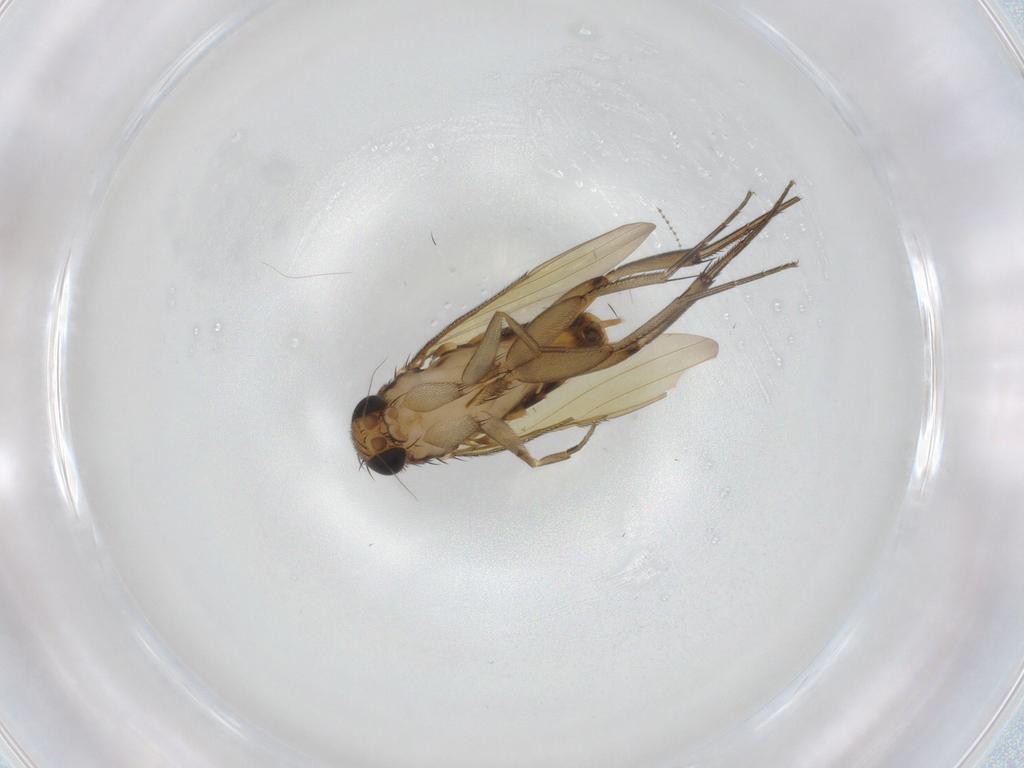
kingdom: Animalia
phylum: Arthropoda
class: Insecta
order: Diptera
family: Phoridae
